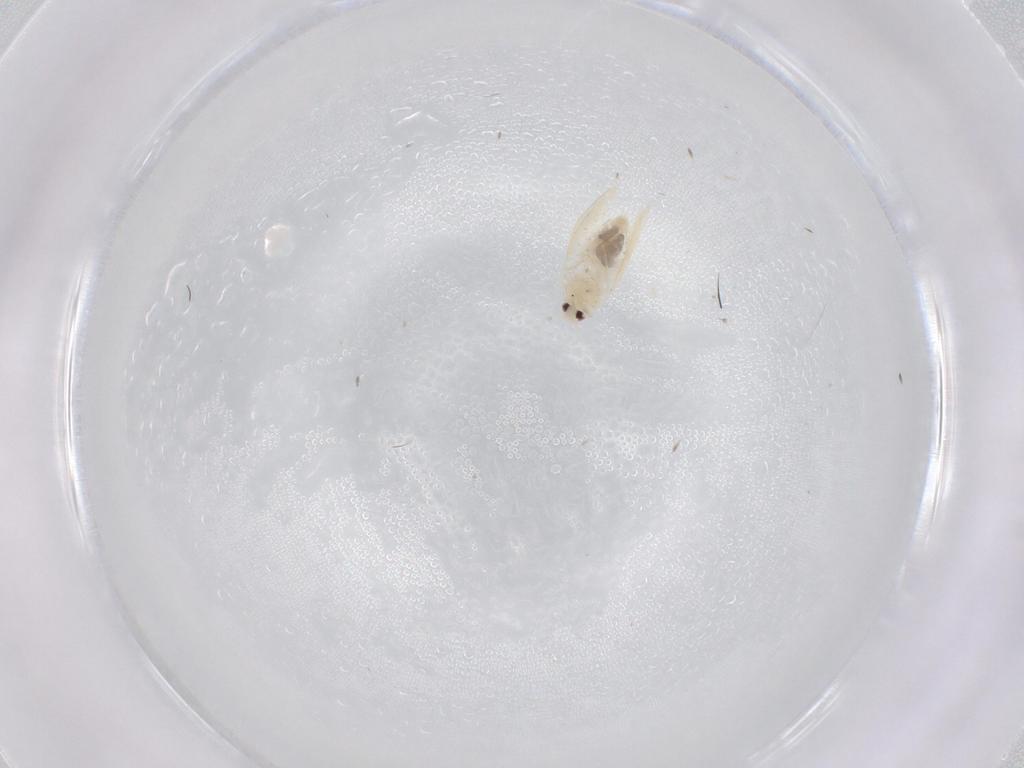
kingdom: Animalia
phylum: Arthropoda
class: Insecta
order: Hemiptera
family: Aleyrodidae
